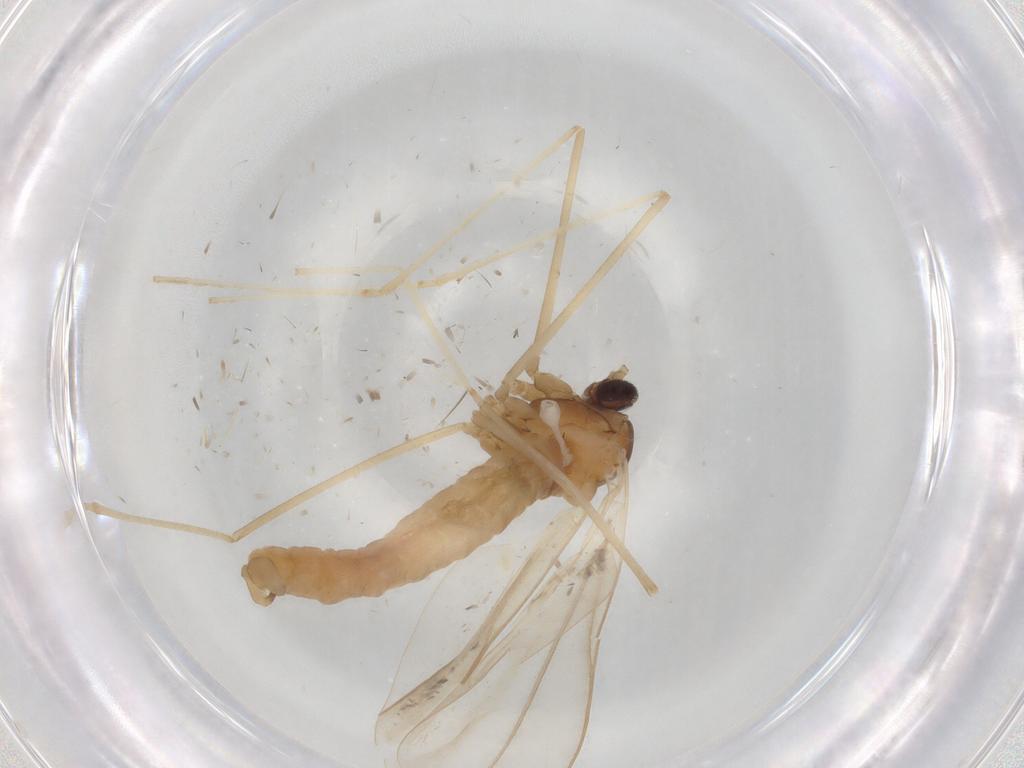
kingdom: Animalia
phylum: Arthropoda
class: Insecta
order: Diptera
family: Cecidomyiidae
